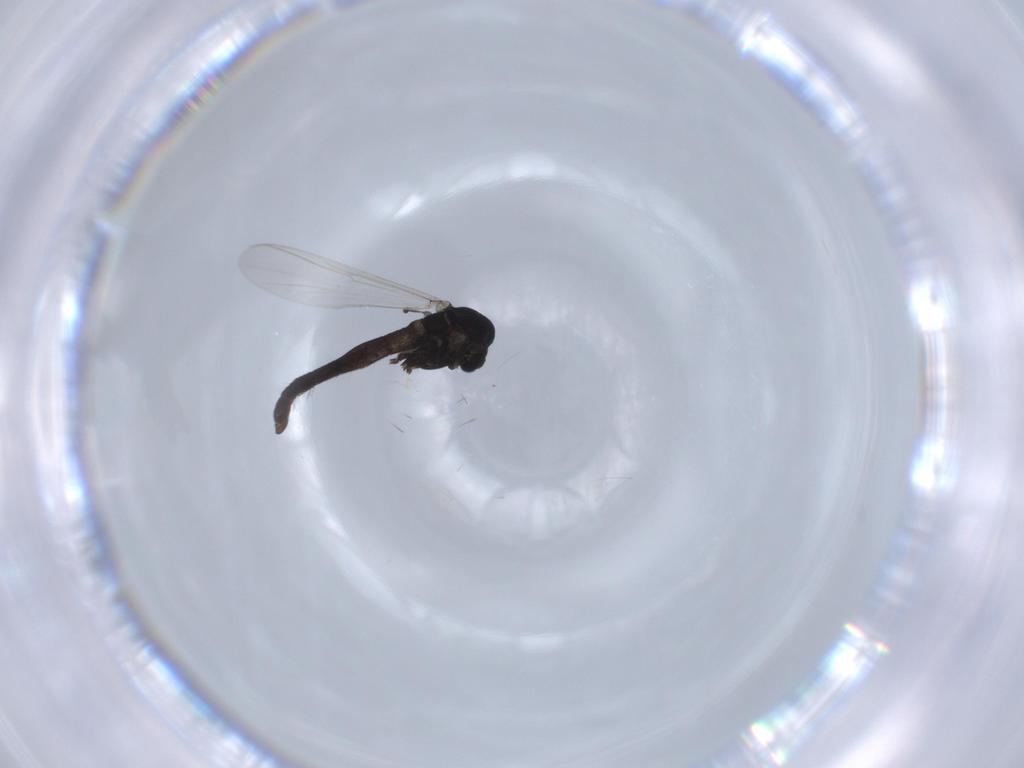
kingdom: Animalia
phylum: Arthropoda
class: Insecta
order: Diptera
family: Chironomidae
